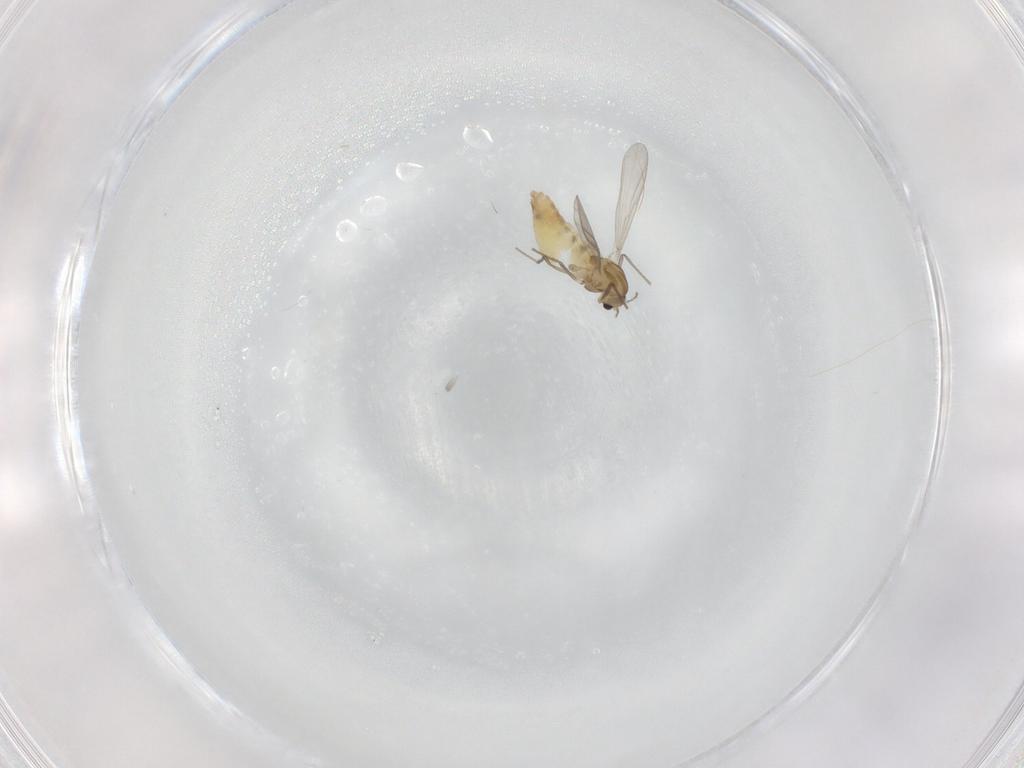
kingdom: Animalia
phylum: Arthropoda
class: Insecta
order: Diptera
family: Chironomidae
